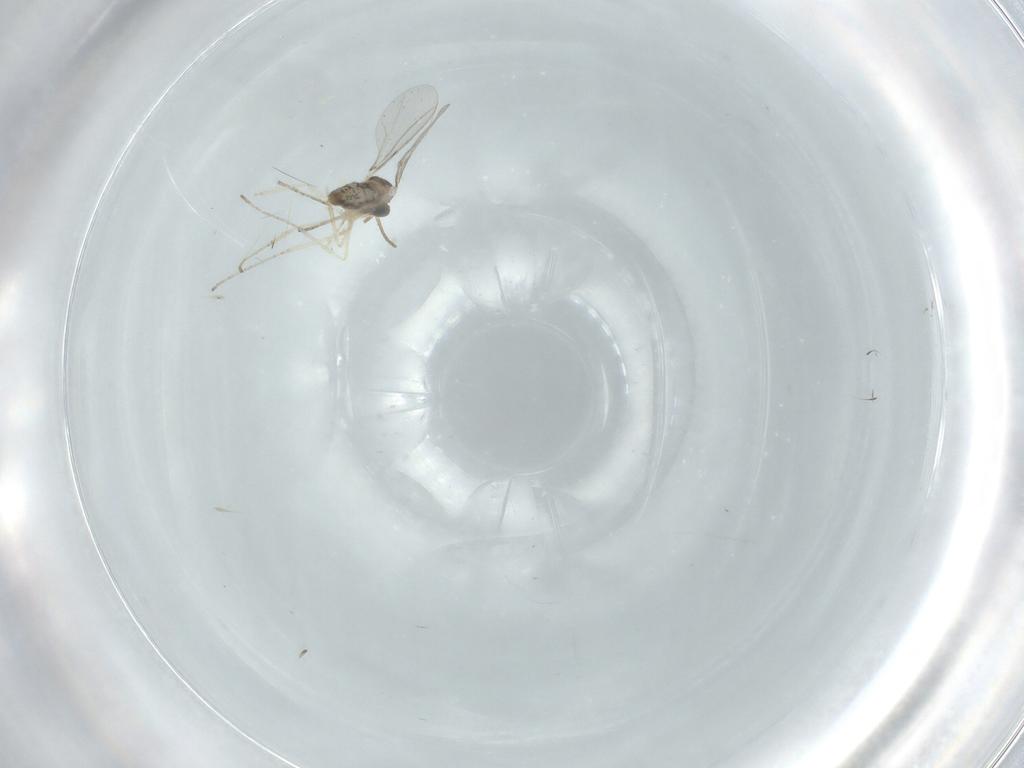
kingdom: Animalia
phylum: Arthropoda
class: Insecta
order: Diptera
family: Cecidomyiidae
